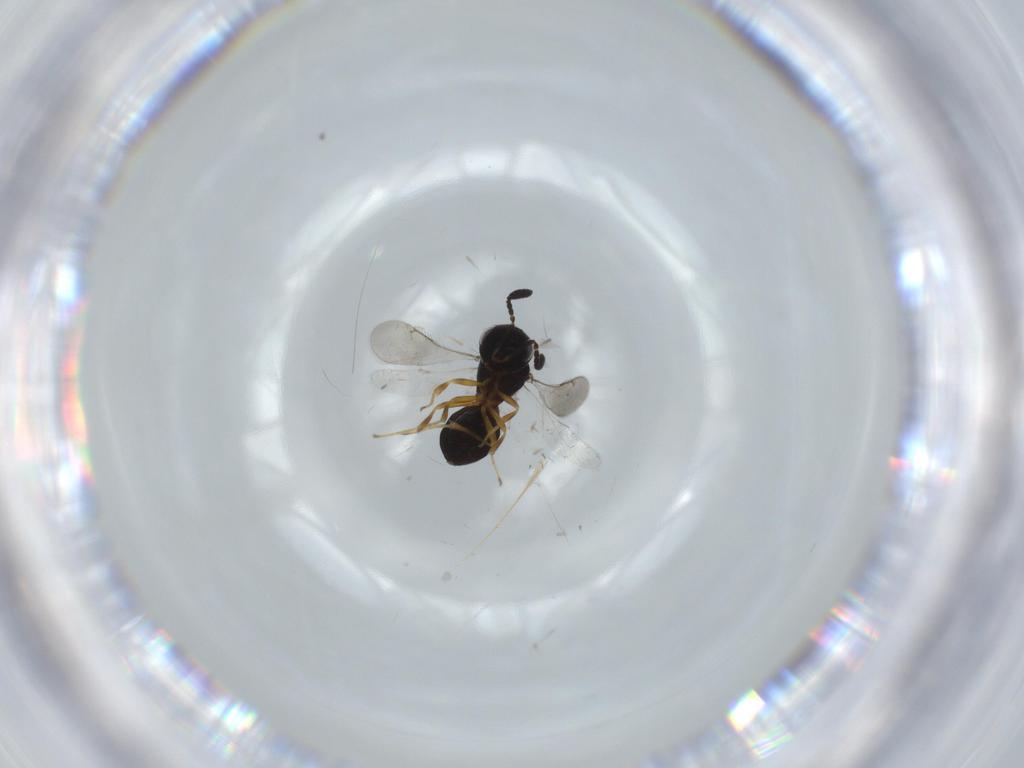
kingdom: Animalia
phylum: Arthropoda
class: Insecta
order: Hymenoptera
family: Scelionidae
